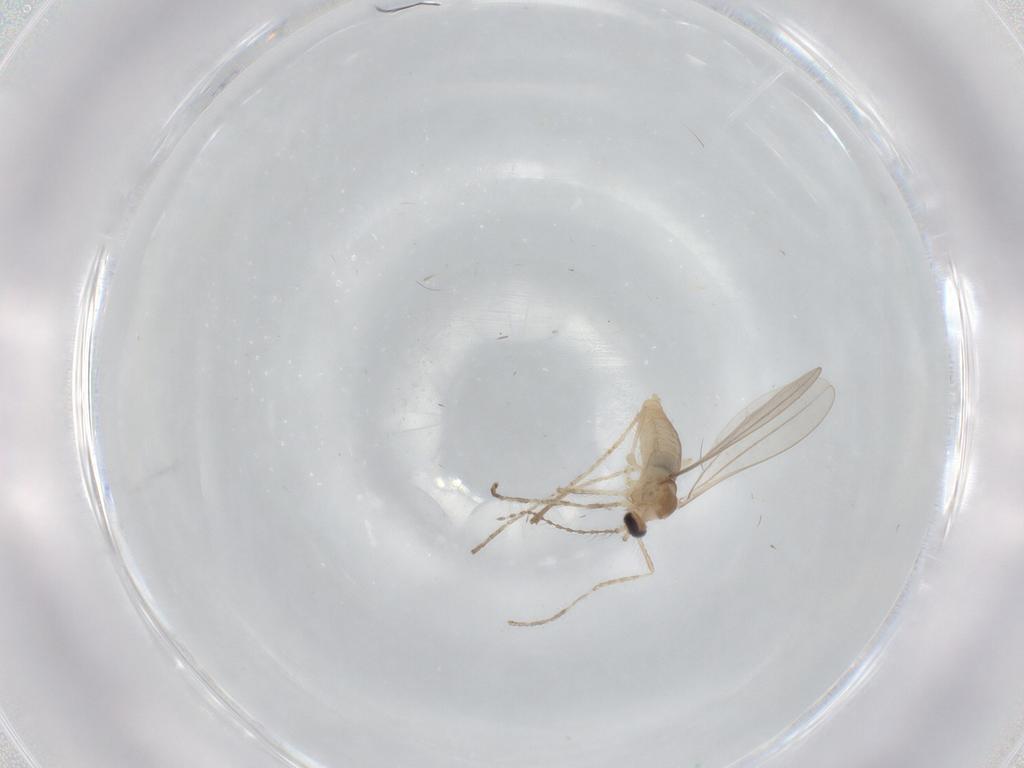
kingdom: Animalia
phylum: Arthropoda
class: Insecta
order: Diptera
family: Cecidomyiidae
